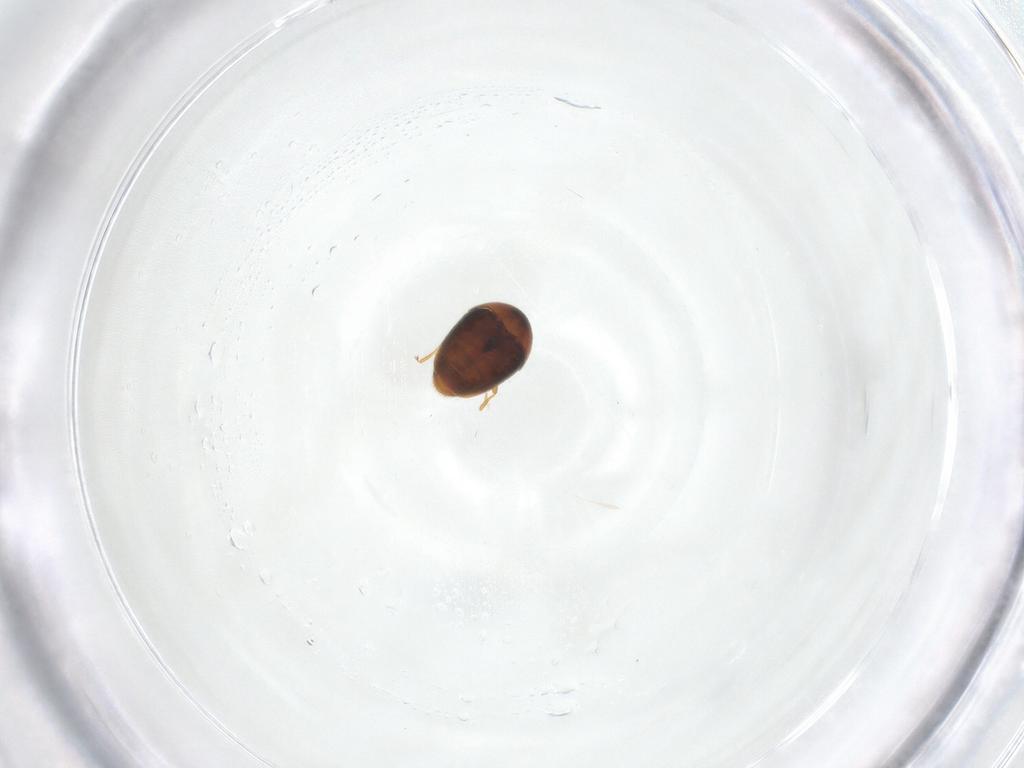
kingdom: Animalia
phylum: Arthropoda
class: Insecta
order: Coleoptera
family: Corylophidae
